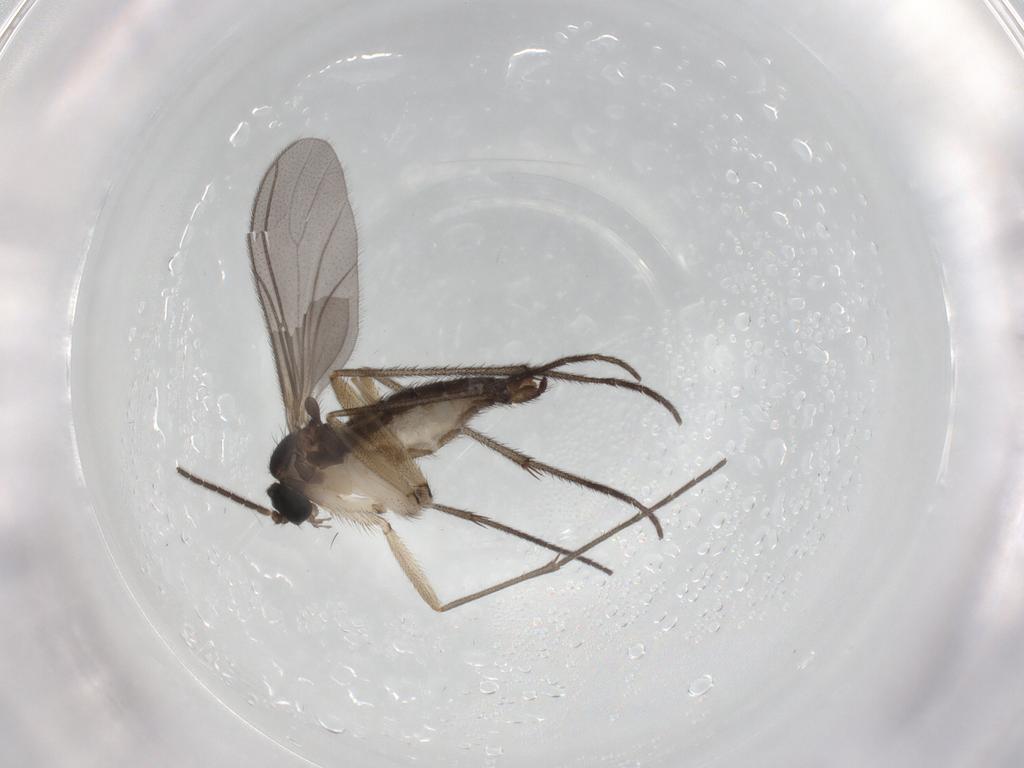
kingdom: Animalia
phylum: Arthropoda
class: Insecta
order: Diptera
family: Sciaridae
